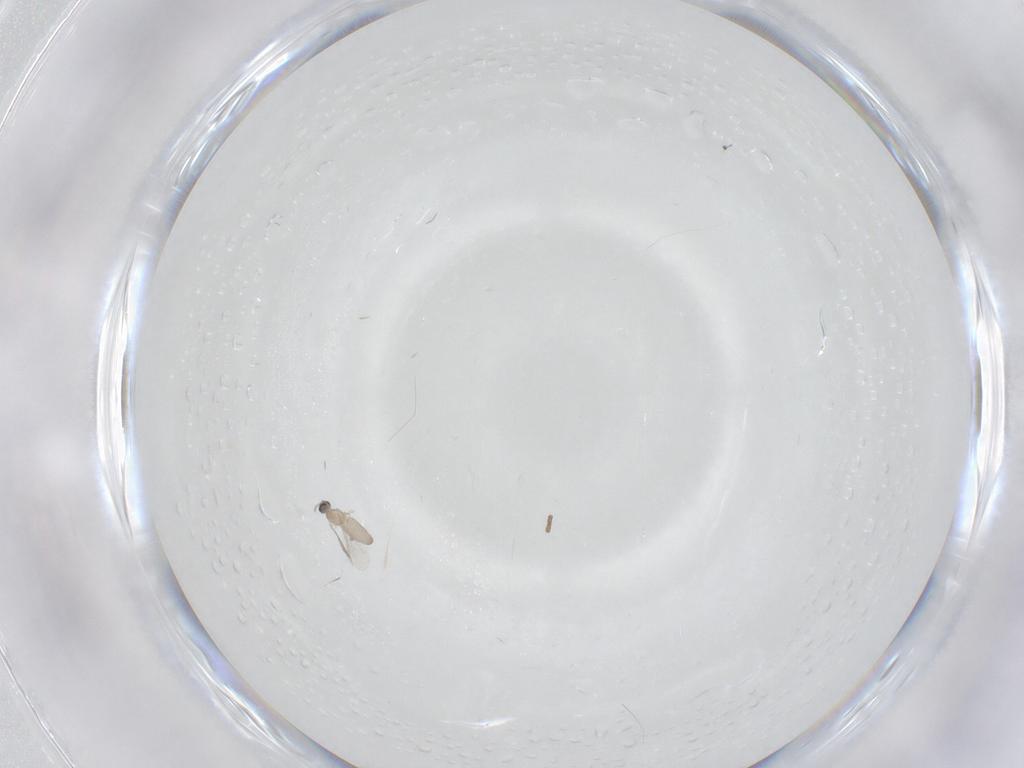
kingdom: Animalia
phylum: Arthropoda
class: Insecta
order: Diptera
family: Cecidomyiidae
